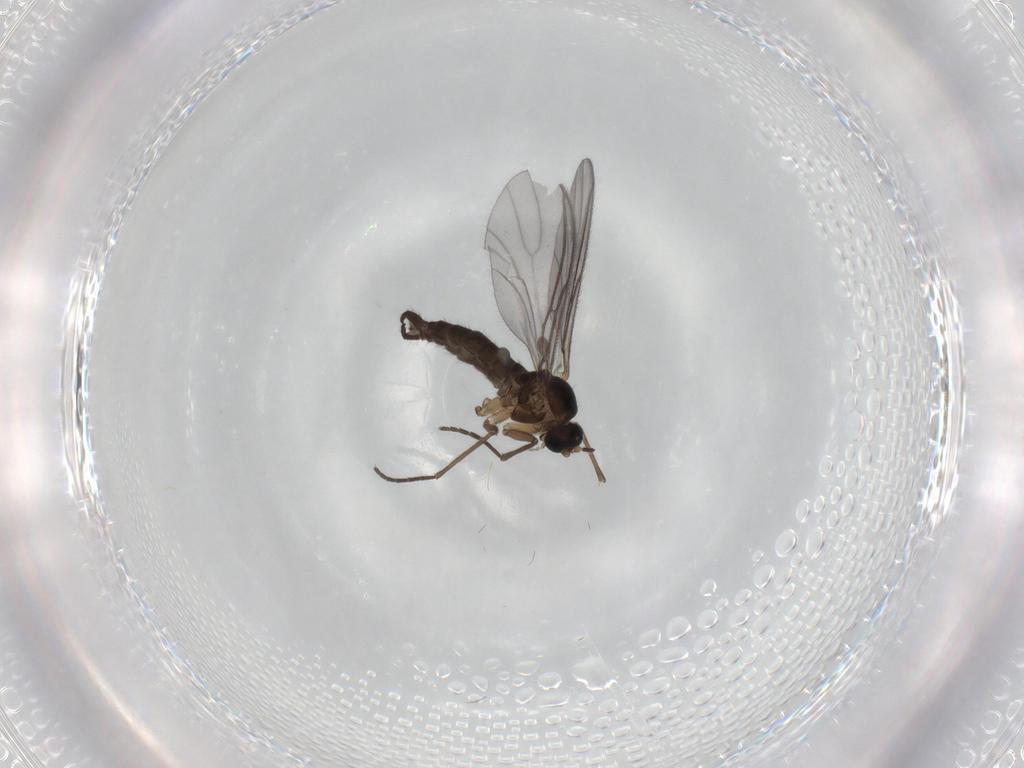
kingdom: Animalia
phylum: Arthropoda
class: Insecta
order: Diptera
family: Sciaridae
